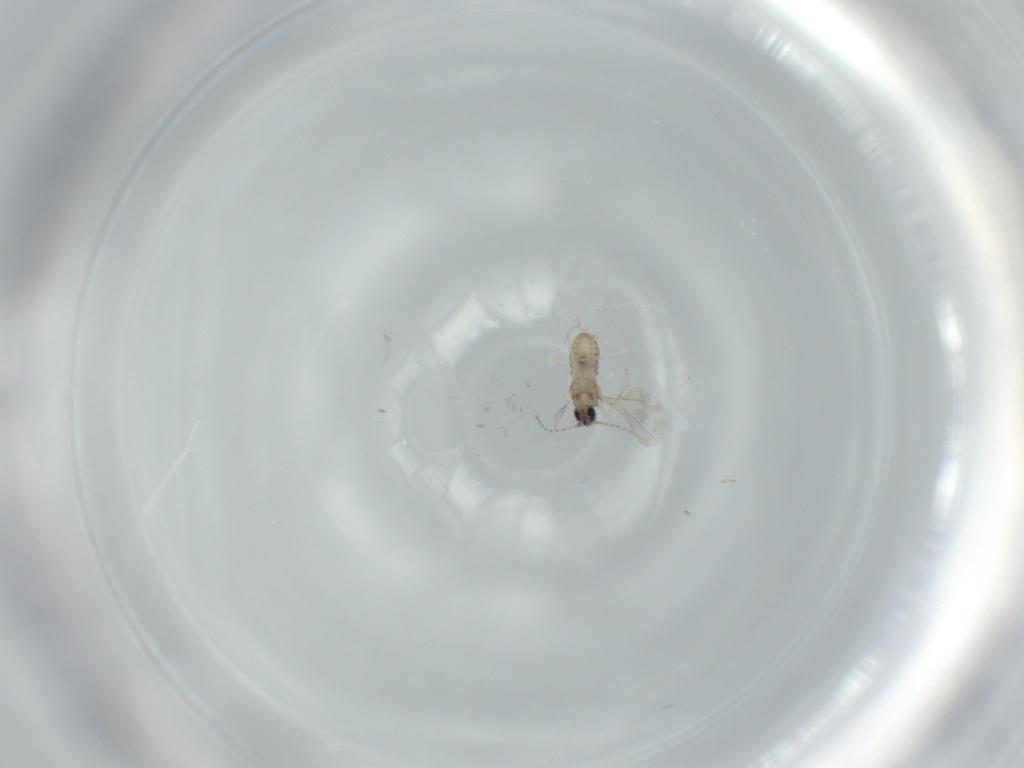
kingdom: Animalia
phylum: Arthropoda
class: Insecta
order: Diptera
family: Cecidomyiidae
